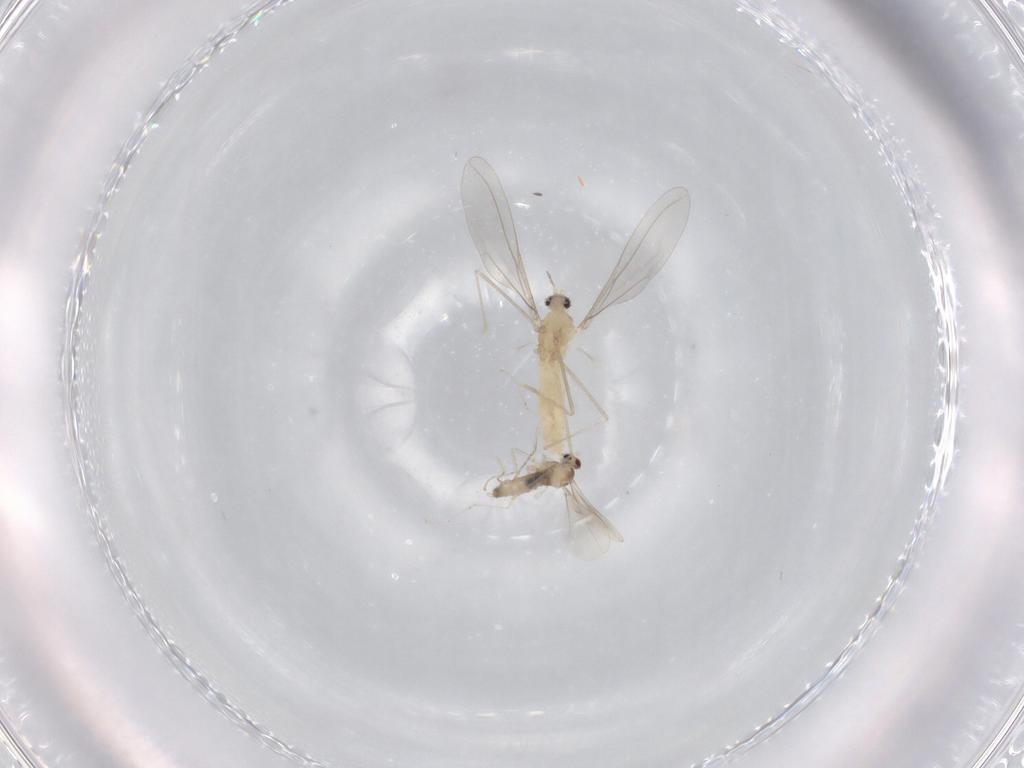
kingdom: Animalia
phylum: Arthropoda
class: Insecta
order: Diptera
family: Cecidomyiidae
